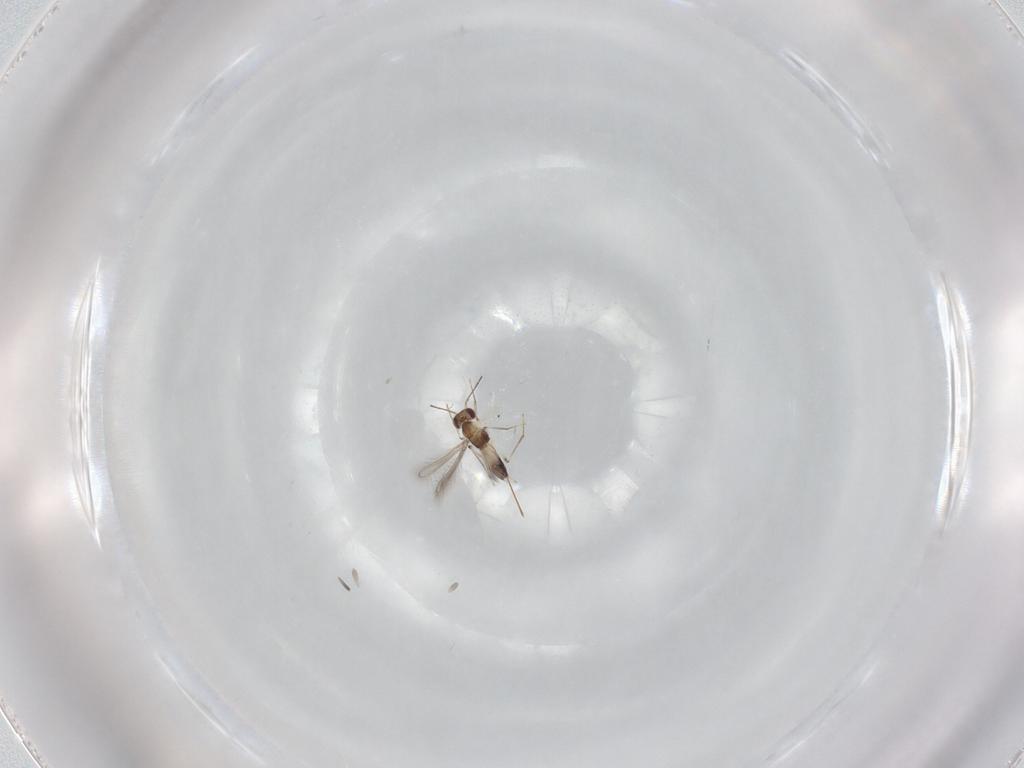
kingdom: Animalia
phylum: Arthropoda
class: Insecta
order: Hymenoptera
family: Mymaridae
